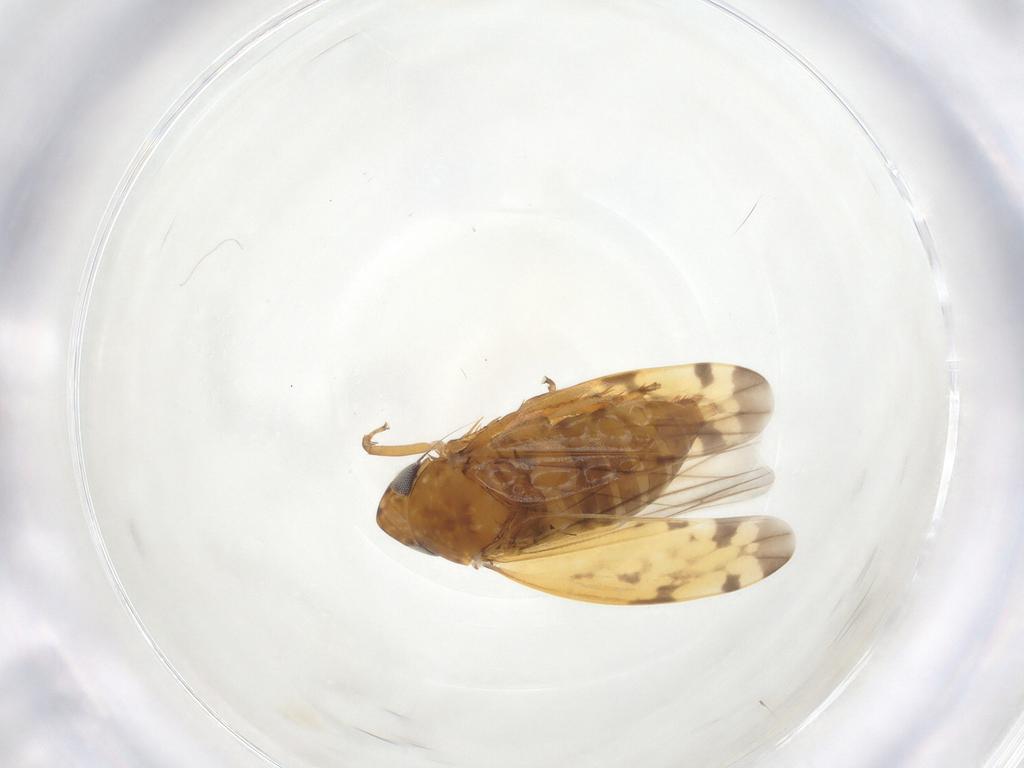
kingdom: Animalia
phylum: Arthropoda
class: Insecta
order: Hemiptera
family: Cicadellidae
